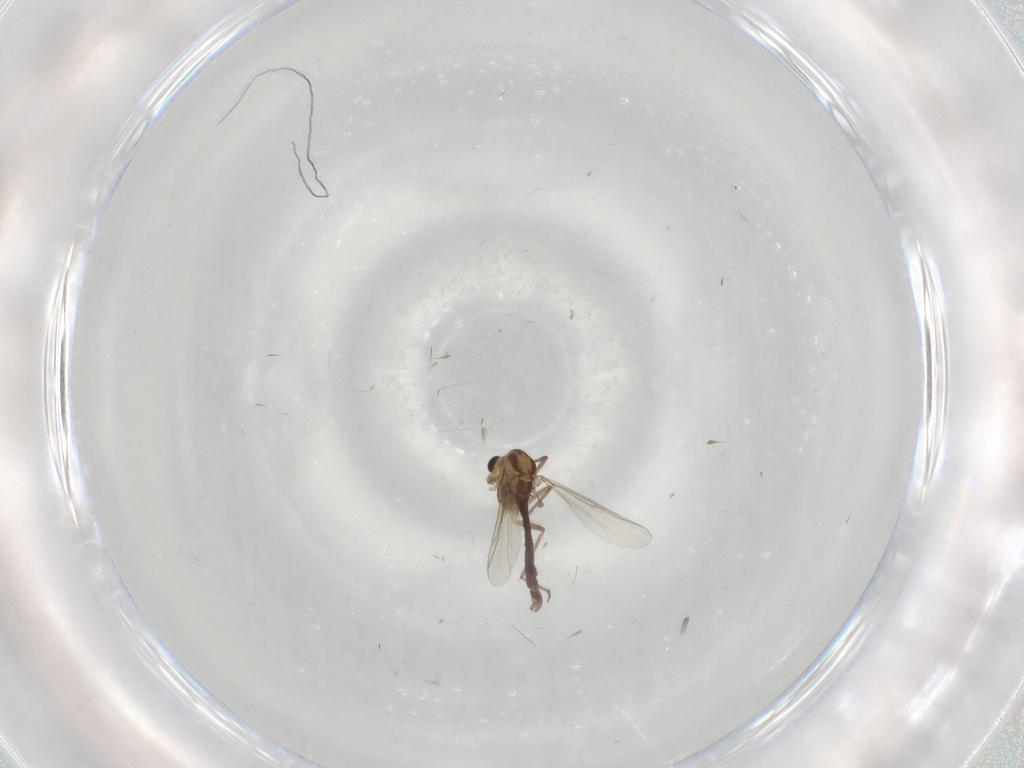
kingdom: Animalia
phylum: Arthropoda
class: Insecta
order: Diptera
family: Chironomidae
